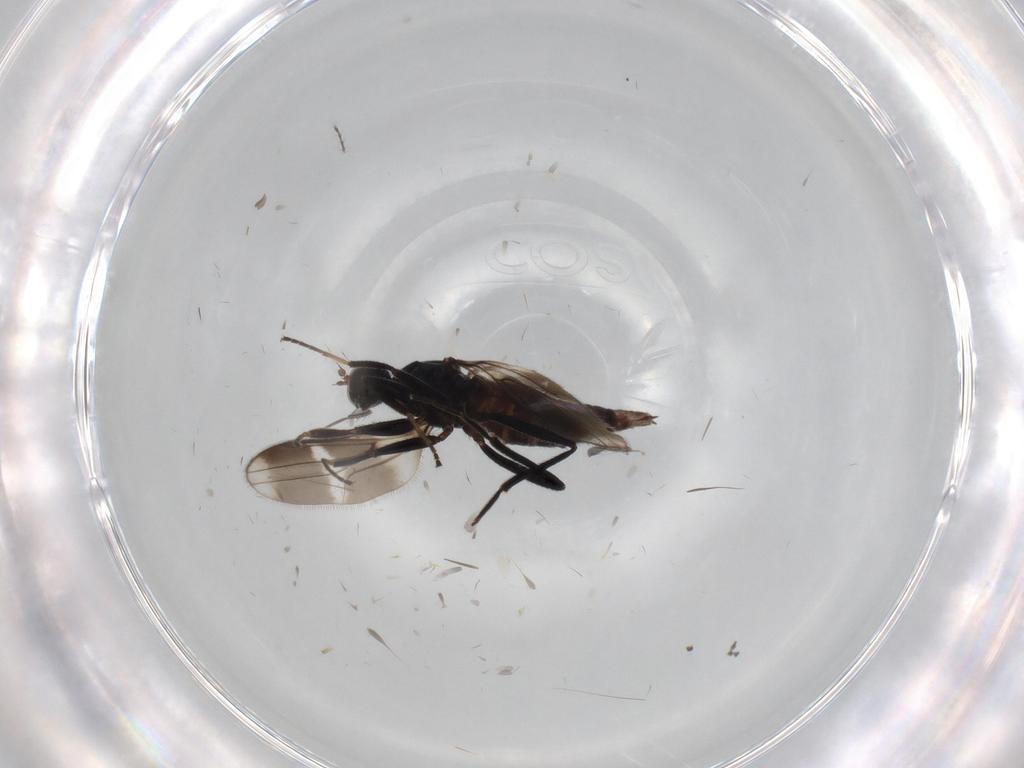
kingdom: Animalia
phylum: Arthropoda
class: Insecta
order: Diptera
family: Hybotidae
